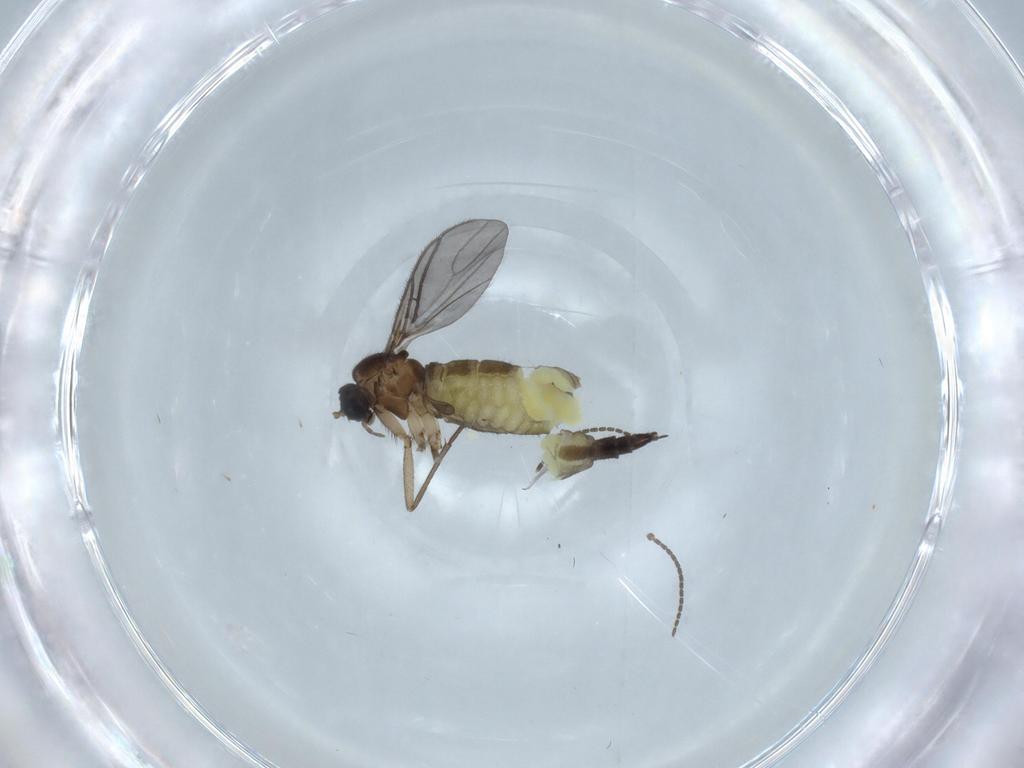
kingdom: Animalia
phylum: Arthropoda
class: Insecta
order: Diptera
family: Sciaridae
